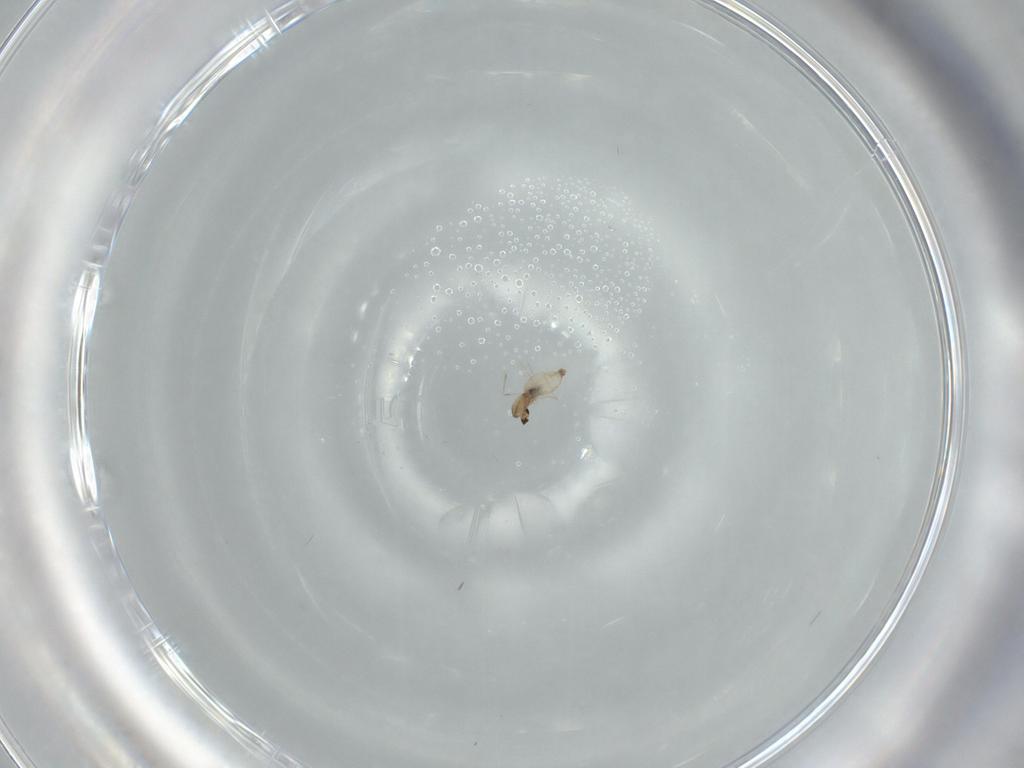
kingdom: Animalia
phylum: Arthropoda
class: Insecta
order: Diptera
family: Cecidomyiidae
